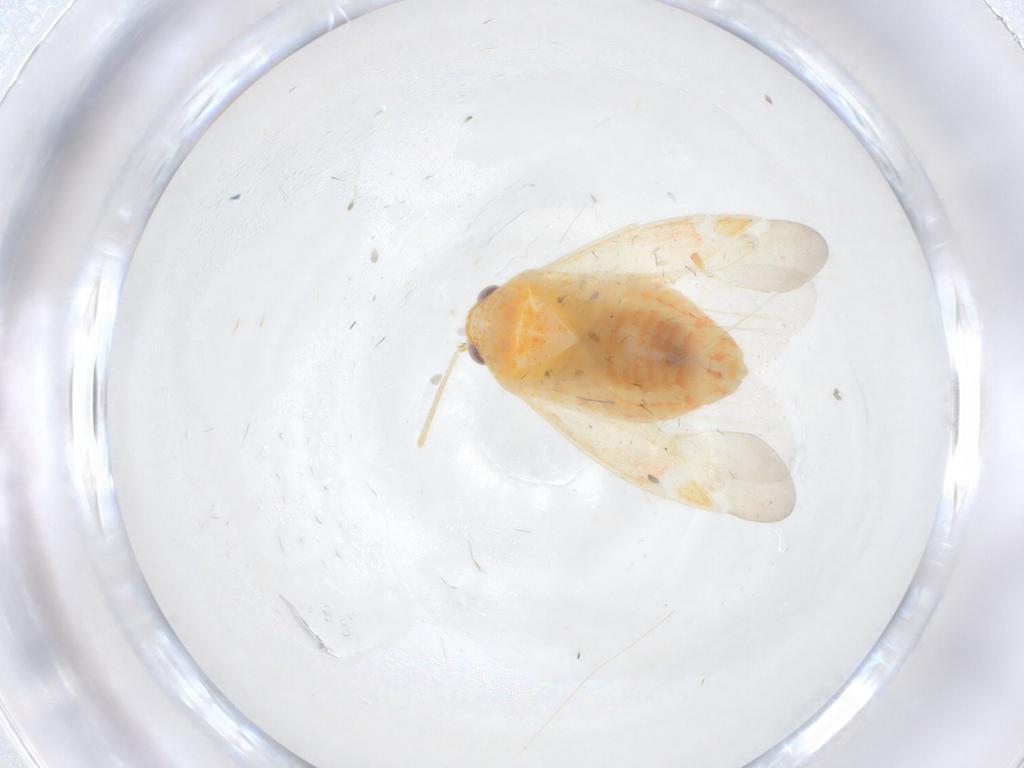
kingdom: Animalia
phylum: Arthropoda
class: Insecta
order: Hemiptera
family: Miridae
